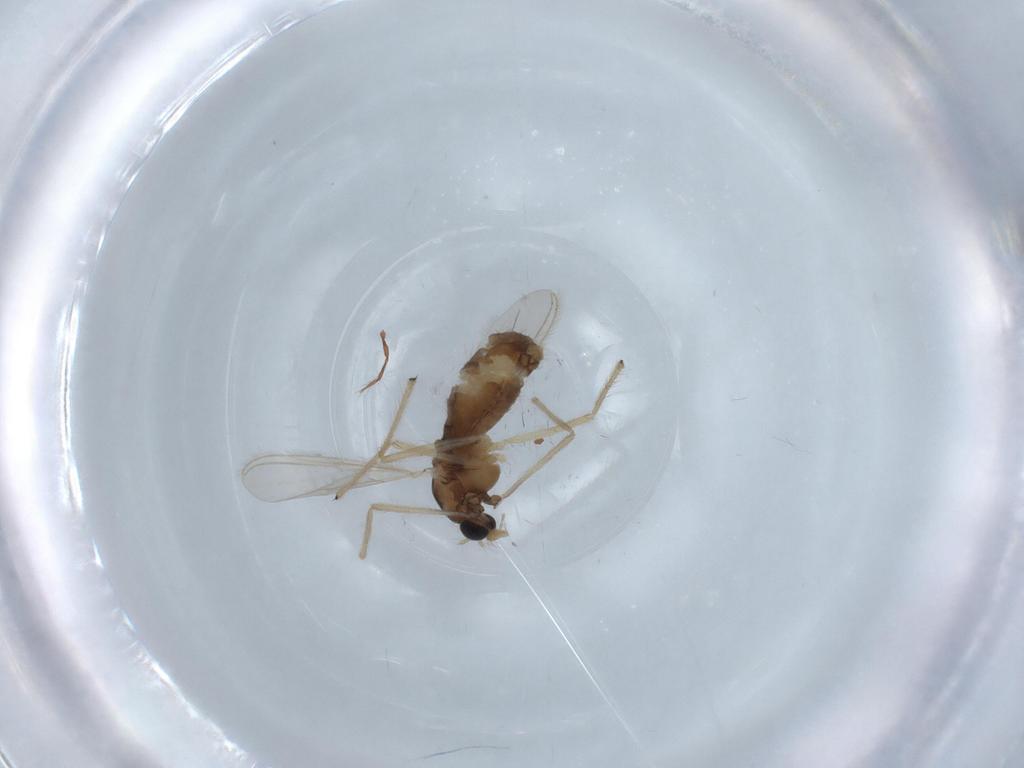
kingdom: Animalia
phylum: Arthropoda
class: Insecta
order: Diptera
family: Chironomidae
